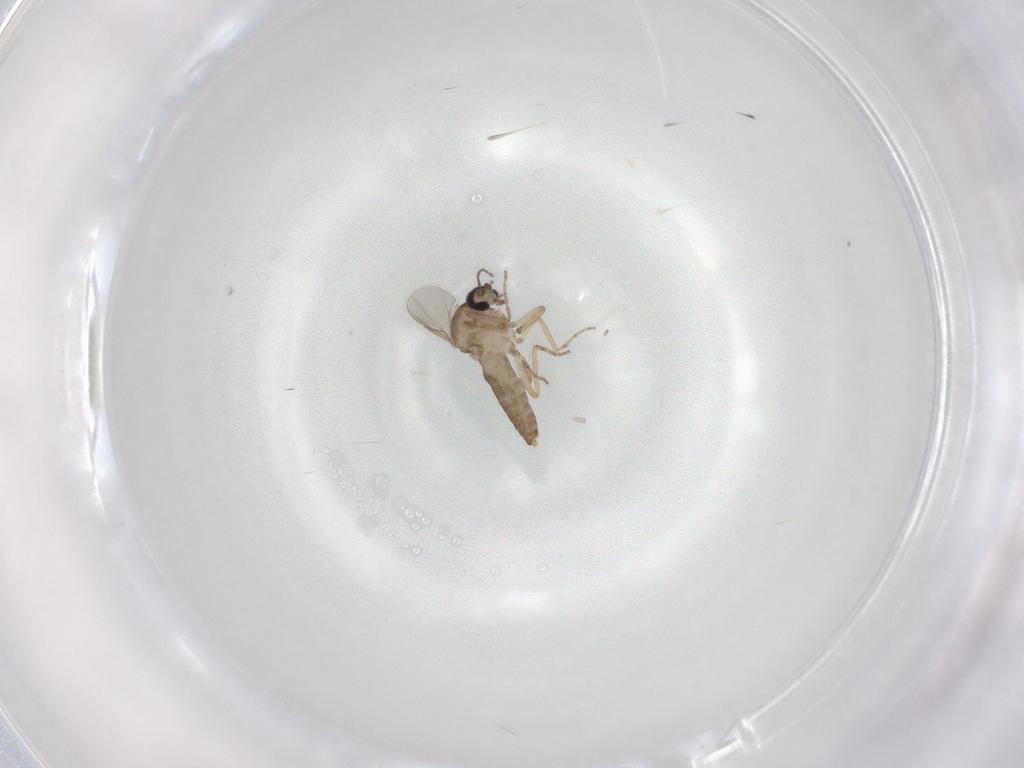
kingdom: Animalia
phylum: Arthropoda
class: Insecta
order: Diptera
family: Ceratopogonidae
